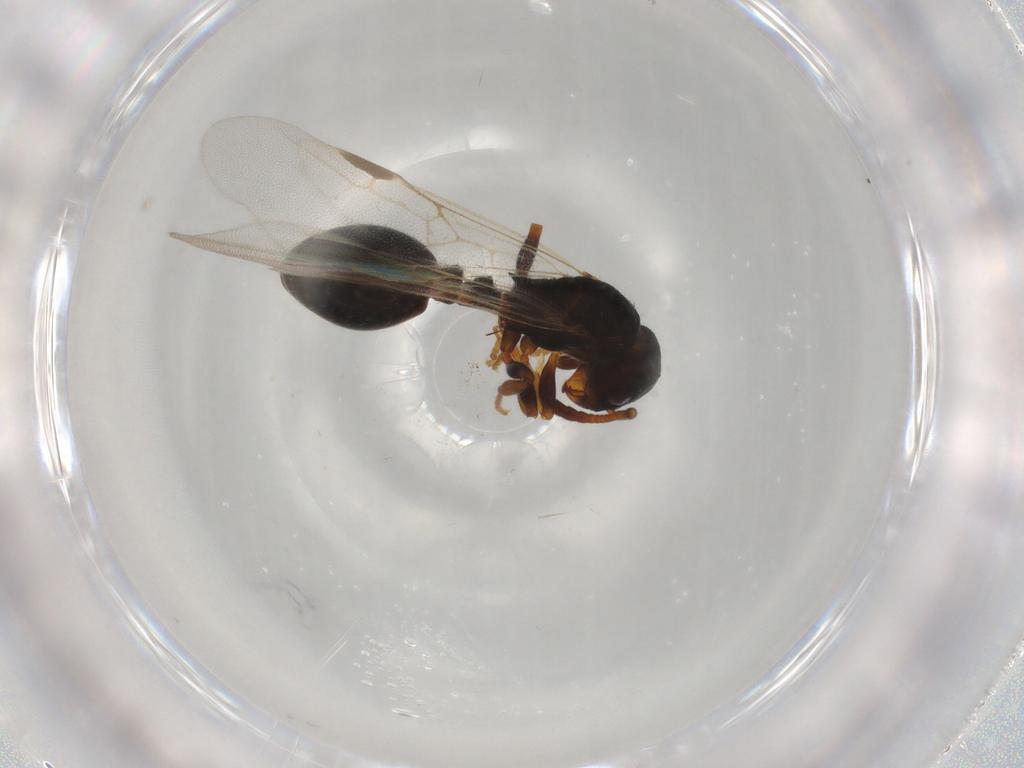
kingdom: Animalia
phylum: Arthropoda
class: Insecta
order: Hymenoptera
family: Formicidae
